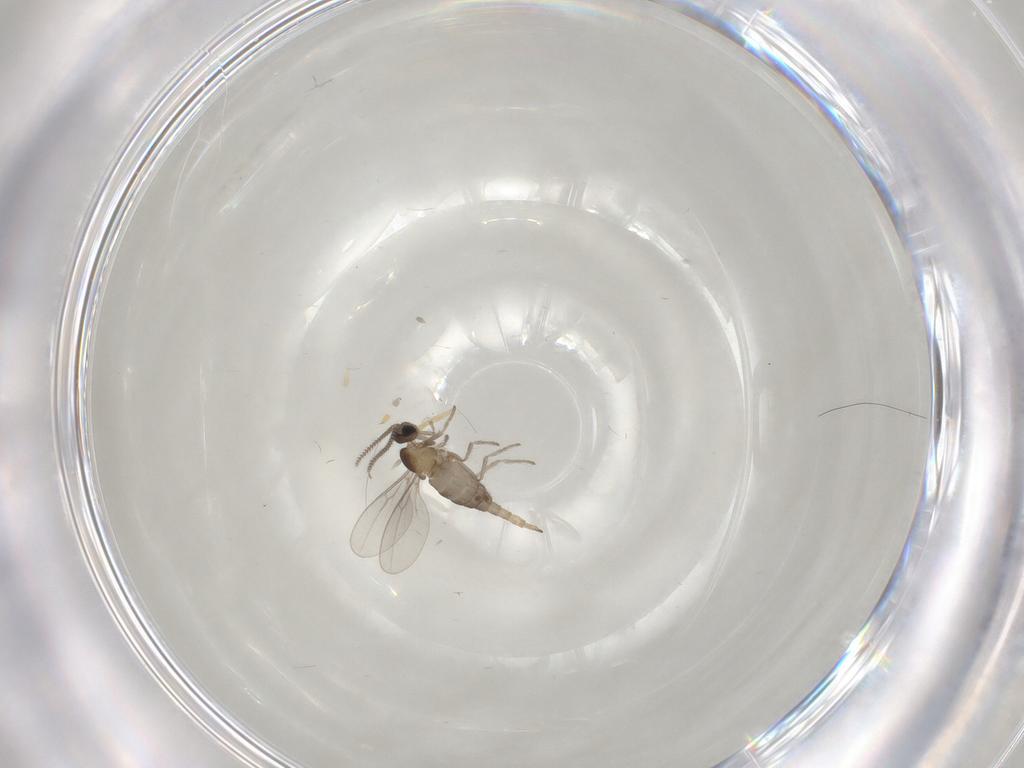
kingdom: Animalia
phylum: Arthropoda
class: Insecta
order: Diptera
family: Cecidomyiidae
